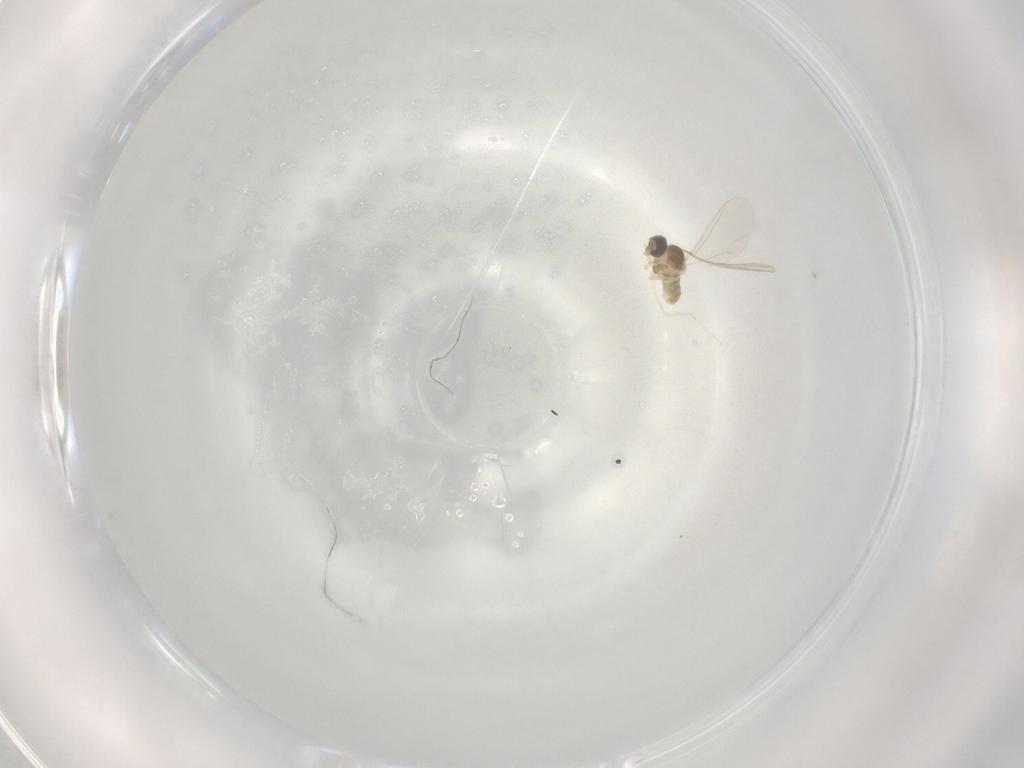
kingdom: Animalia
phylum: Arthropoda
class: Insecta
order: Diptera
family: Cecidomyiidae
